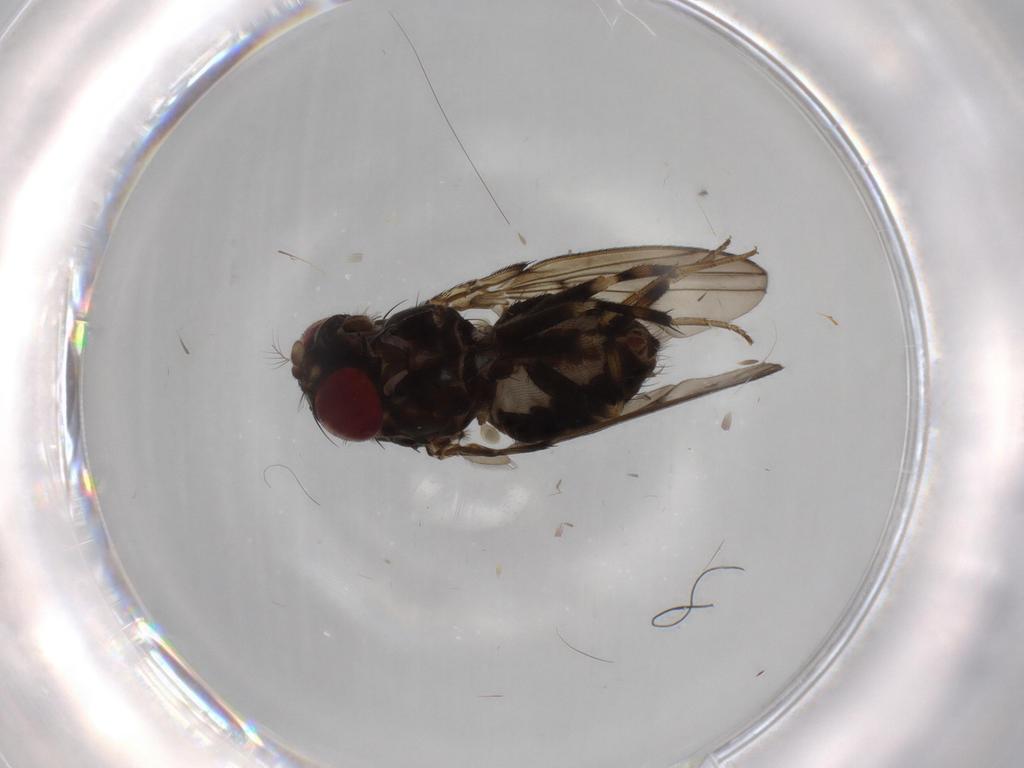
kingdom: Animalia
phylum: Arthropoda
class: Insecta
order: Diptera
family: Drosophilidae
